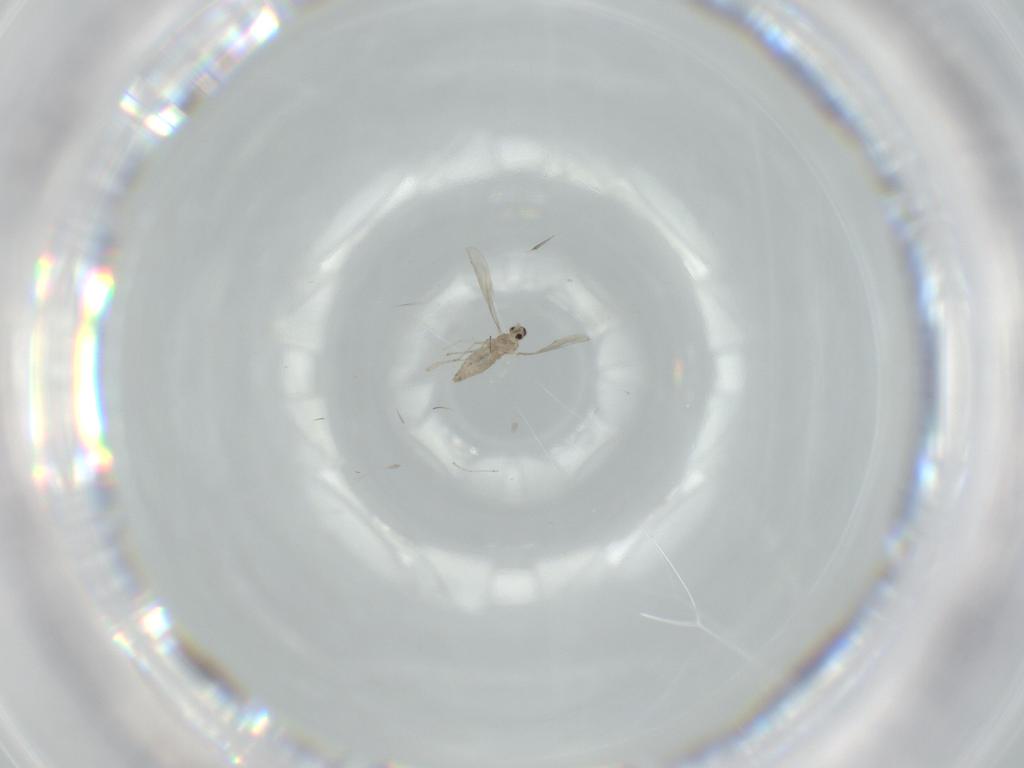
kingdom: Animalia
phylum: Arthropoda
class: Insecta
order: Diptera
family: Cecidomyiidae
